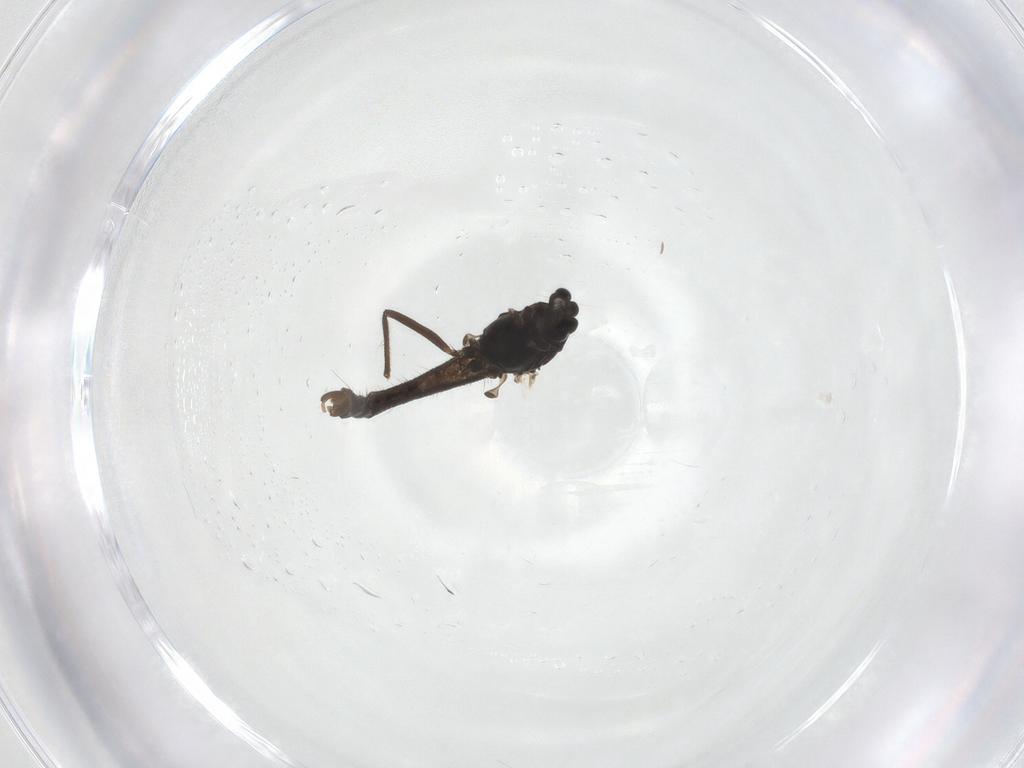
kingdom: Animalia
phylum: Arthropoda
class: Insecta
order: Diptera
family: Chironomidae
